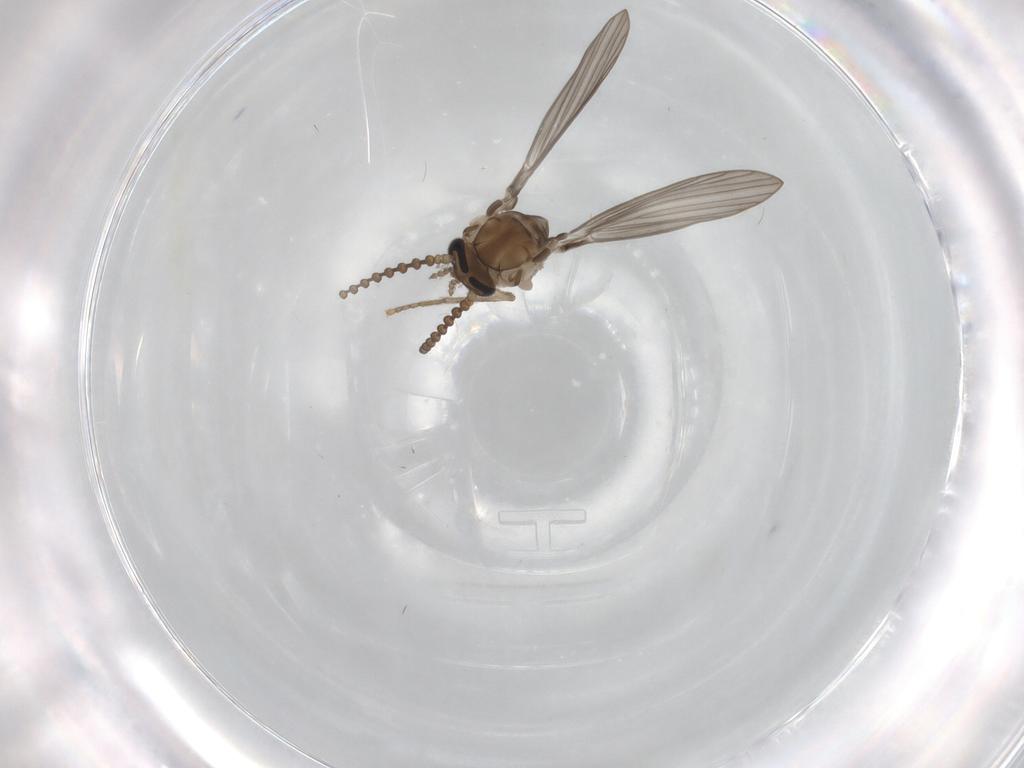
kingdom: Animalia
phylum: Arthropoda
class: Insecta
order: Diptera
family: Psychodidae
